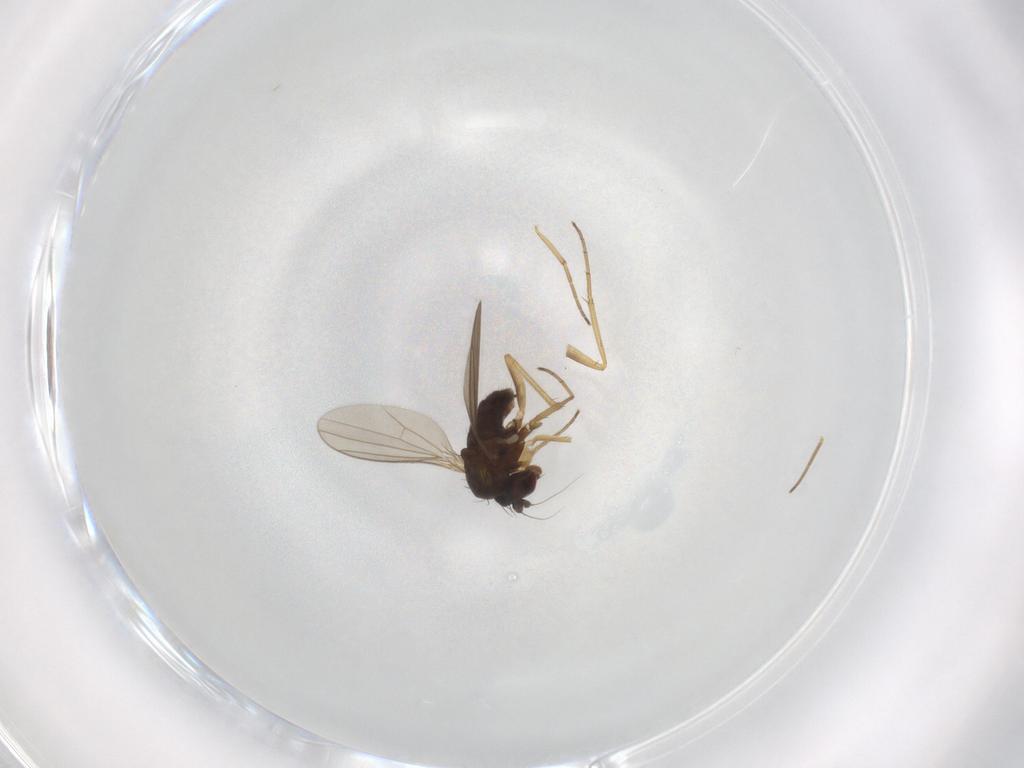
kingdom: Animalia
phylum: Arthropoda
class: Insecta
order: Diptera
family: Dolichopodidae
